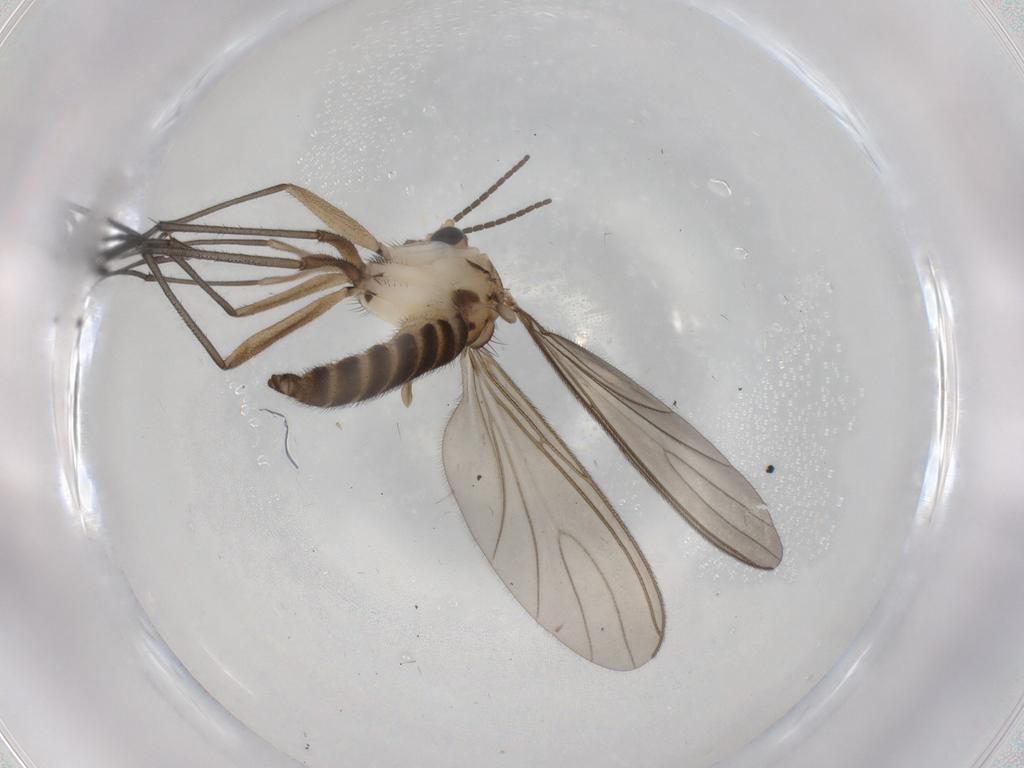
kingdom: Animalia
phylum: Arthropoda
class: Insecta
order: Diptera
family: Sciaridae
